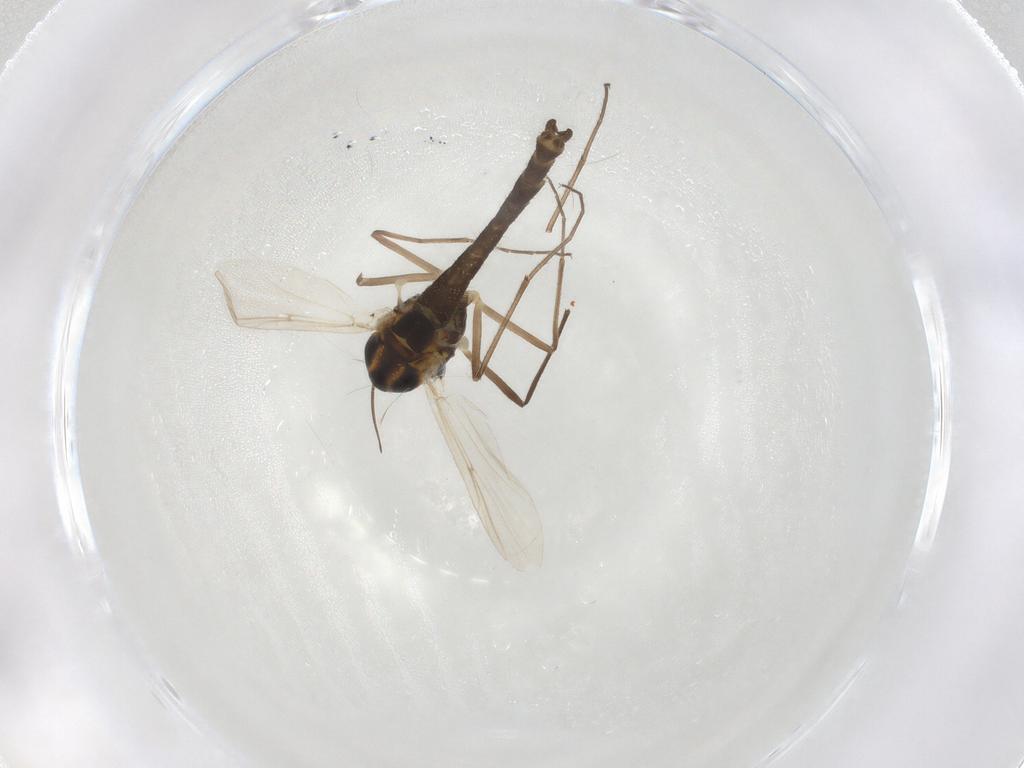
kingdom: Animalia
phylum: Arthropoda
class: Insecta
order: Diptera
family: Chironomidae
